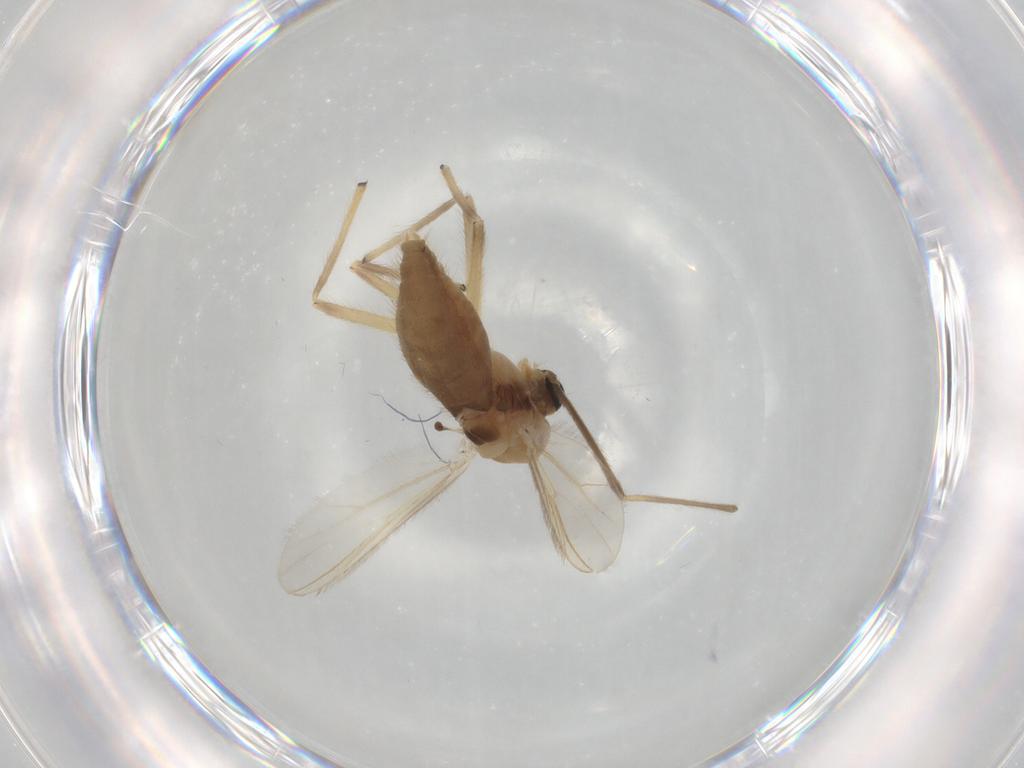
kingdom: Animalia
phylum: Arthropoda
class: Insecta
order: Diptera
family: Chironomidae
